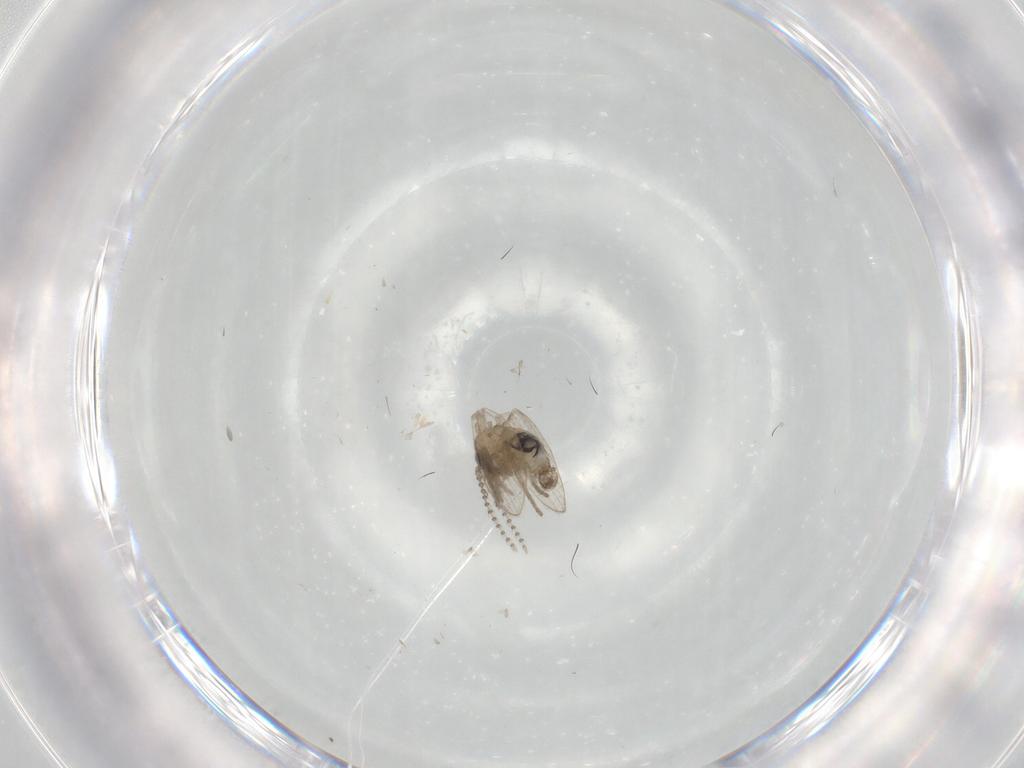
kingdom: Animalia
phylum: Arthropoda
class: Insecta
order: Diptera
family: Psychodidae
